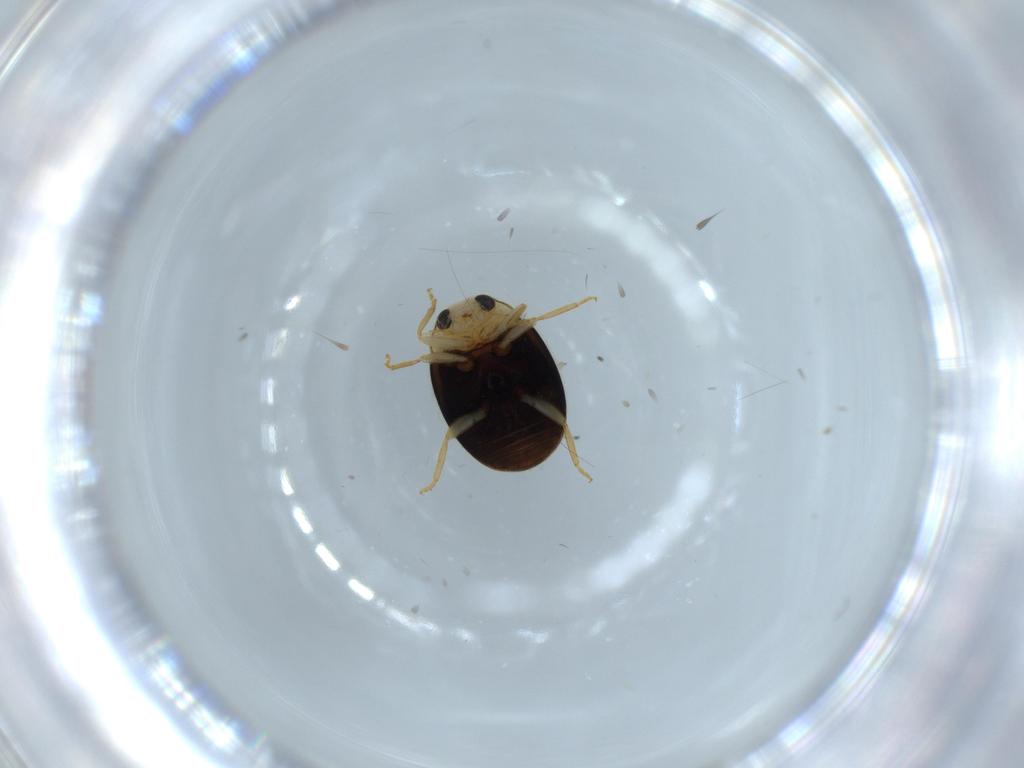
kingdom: Animalia
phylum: Arthropoda
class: Insecta
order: Coleoptera
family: Coccinellidae
